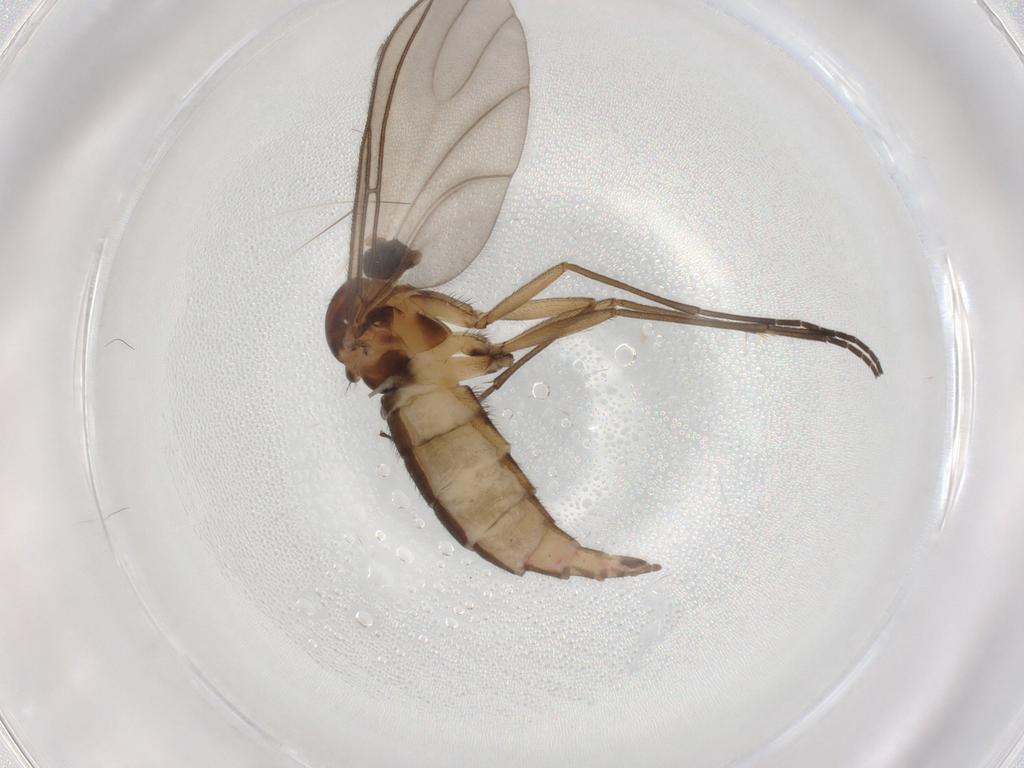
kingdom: Animalia
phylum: Arthropoda
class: Insecta
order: Diptera
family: Sciaridae
